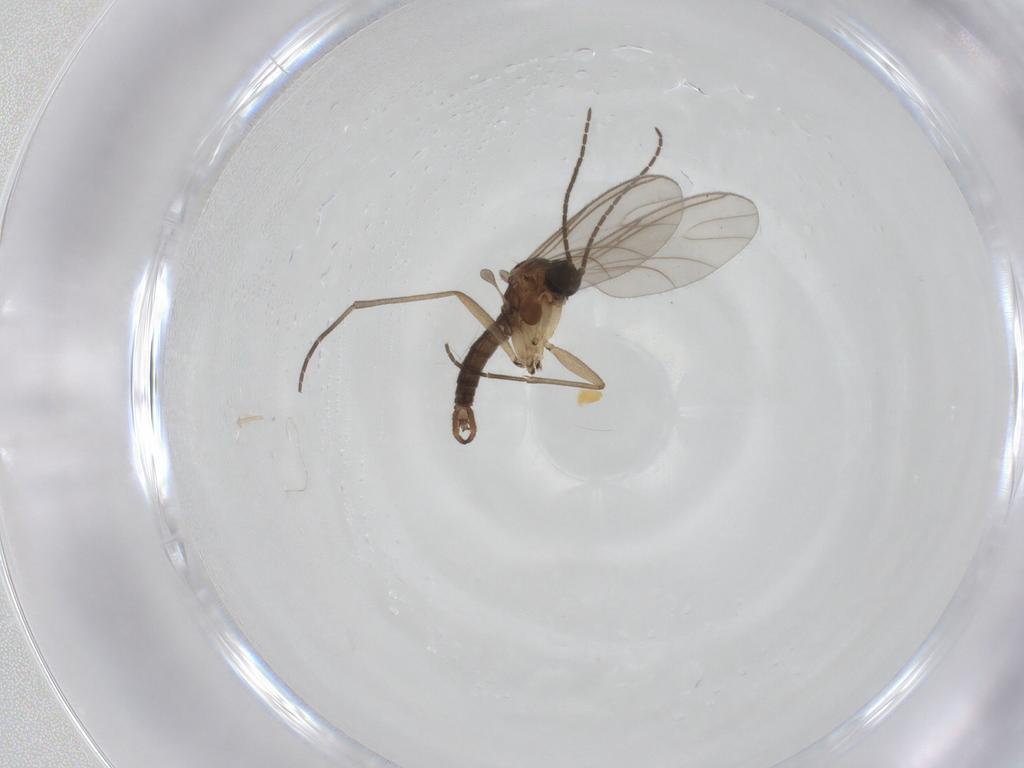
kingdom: Animalia
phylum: Arthropoda
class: Insecta
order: Diptera
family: Sciaridae
